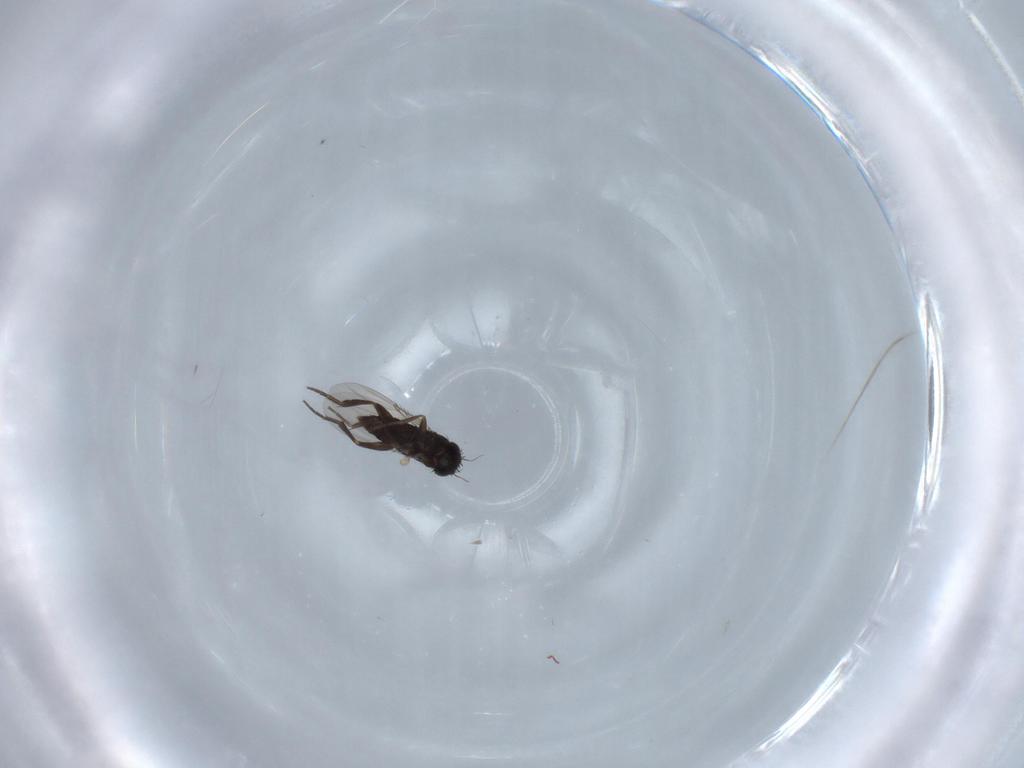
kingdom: Animalia
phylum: Arthropoda
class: Insecta
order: Diptera
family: Phoridae
